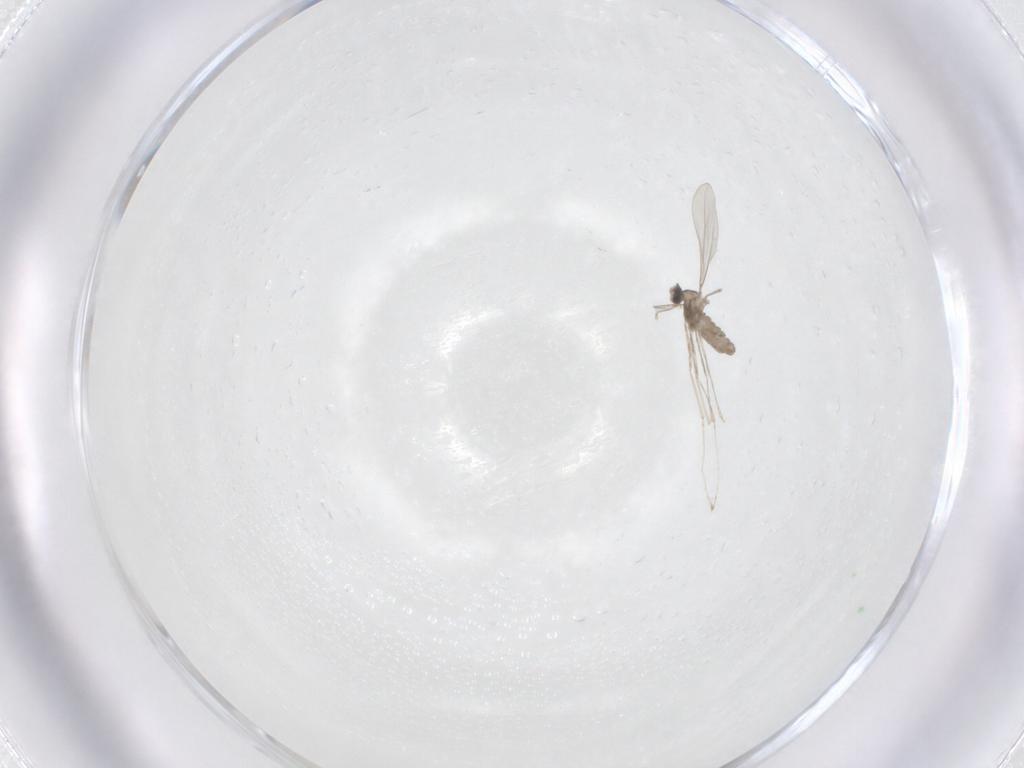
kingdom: Animalia
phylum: Arthropoda
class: Insecta
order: Diptera
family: Cecidomyiidae
